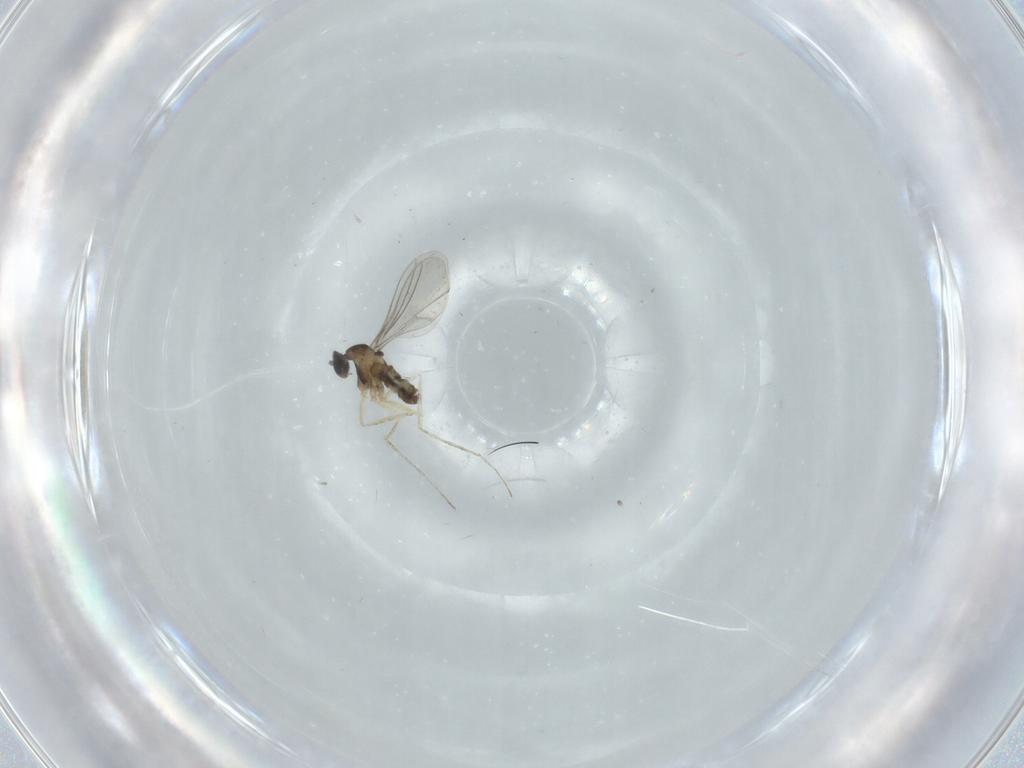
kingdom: Animalia
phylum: Arthropoda
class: Insecta
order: Diptera
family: Cecidomyiidae
